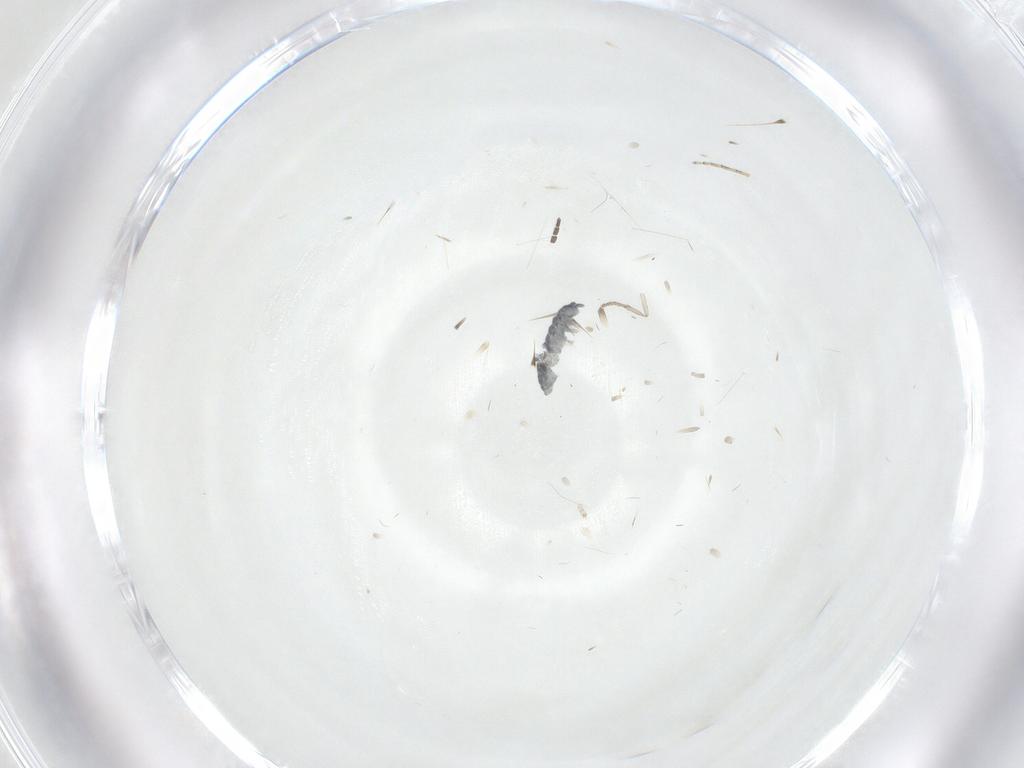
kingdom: Animalia
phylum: Arthropoda
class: Collembola
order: Poduromorpha
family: Hypogastruridae
